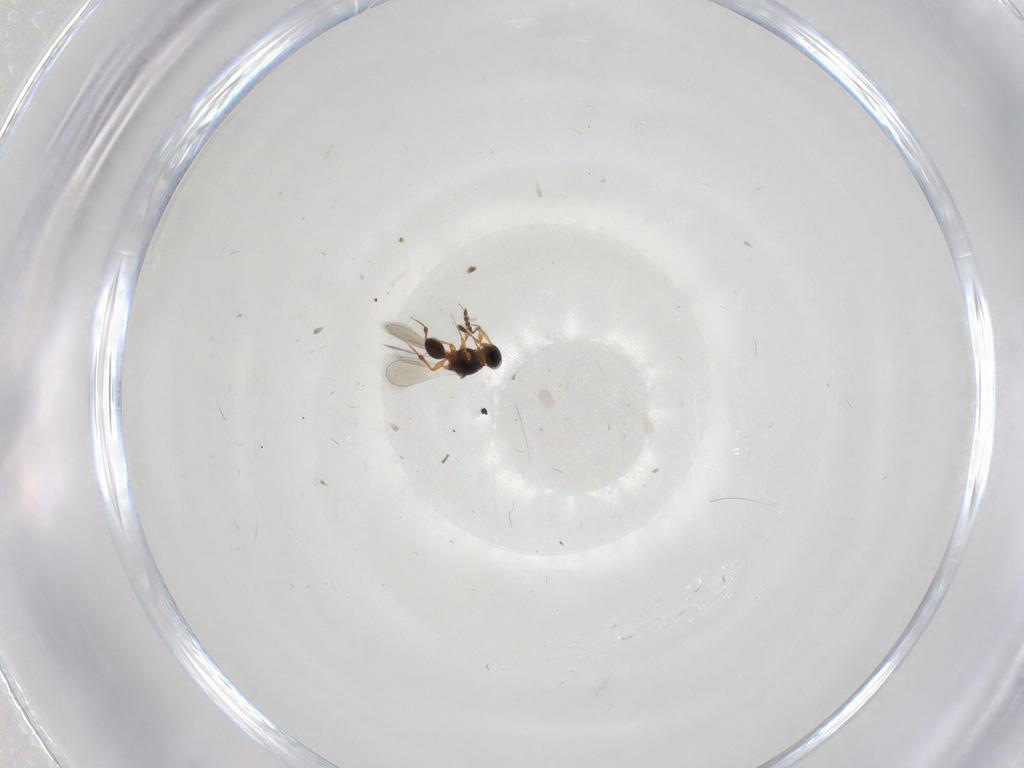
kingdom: Animalia
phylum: Arthropoda
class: Insecta
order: Hymenoptera
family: Platygastridae
